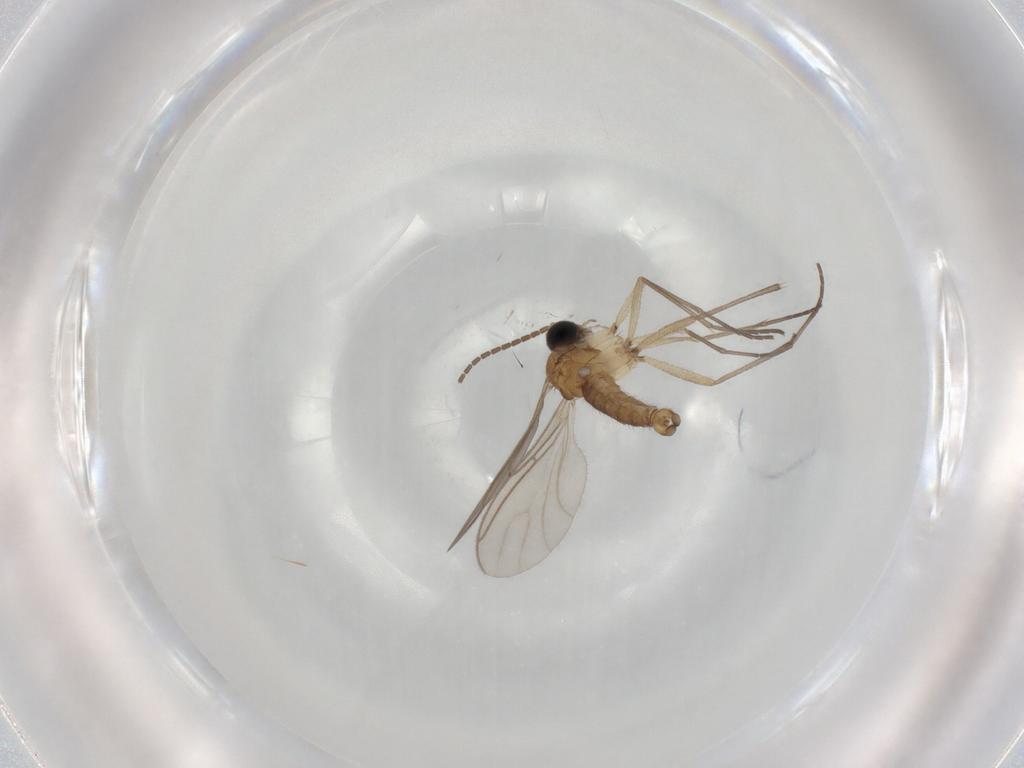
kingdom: Animalia
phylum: Arthropoda
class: Insecta
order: Diptera
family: Sciaridae
